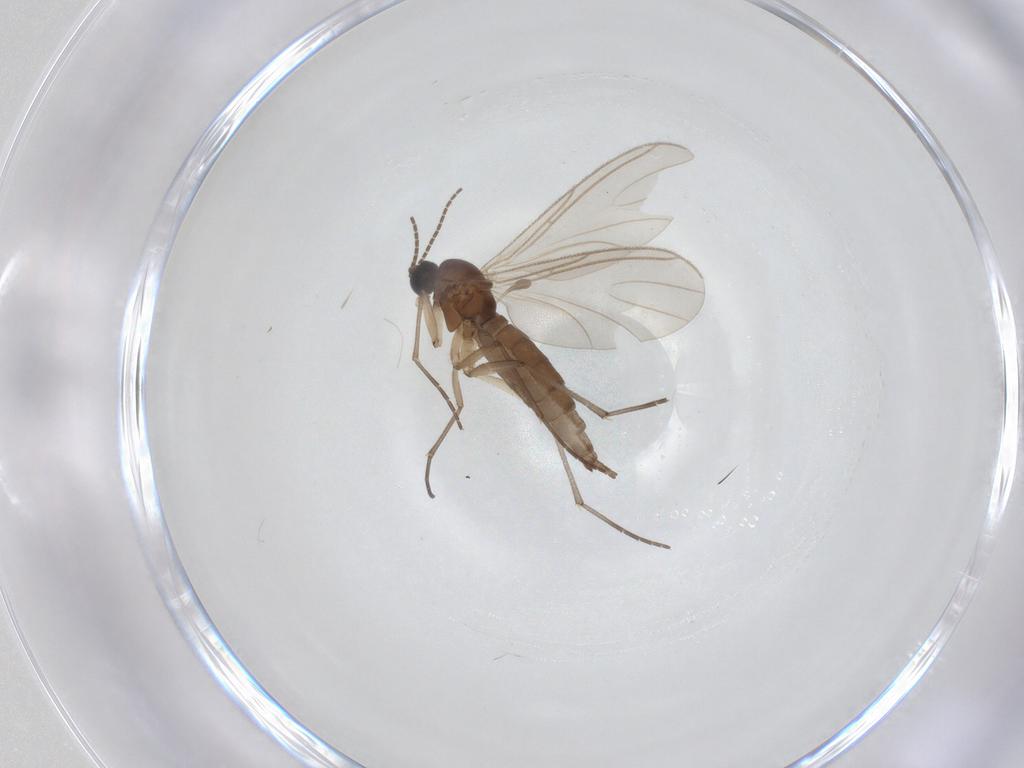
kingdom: Animalia
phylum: Arthropoda
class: Insecta
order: Diptera
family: Sciaridae
